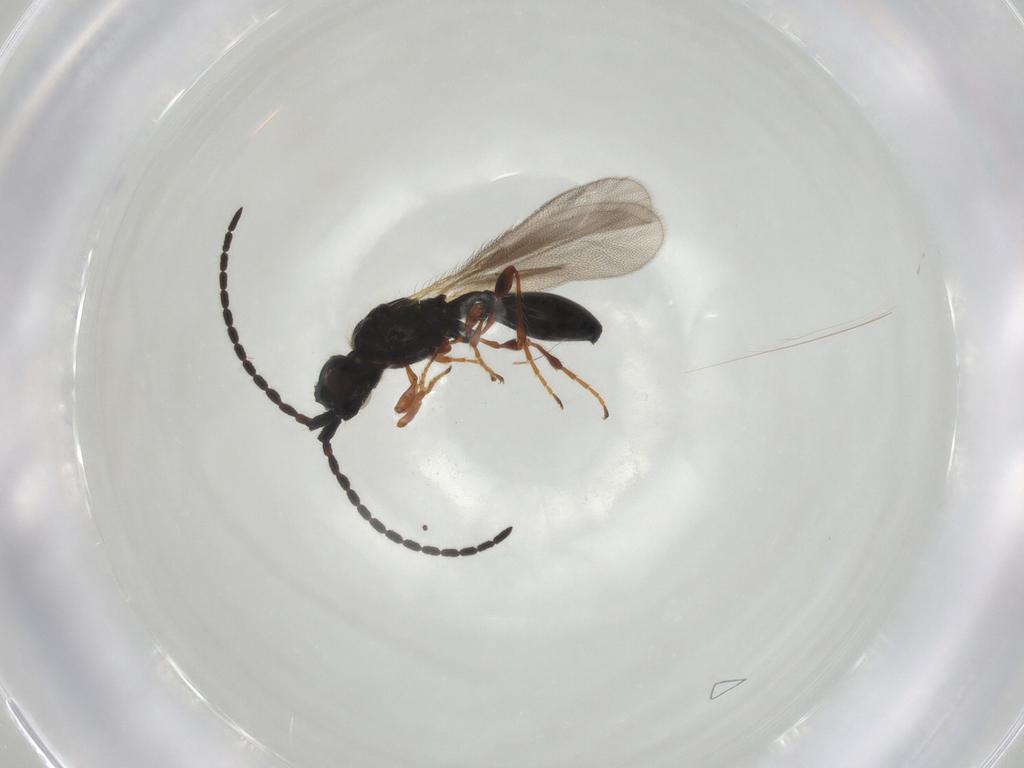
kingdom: Animalia
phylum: Arthropoda
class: Insecta
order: Hymenoptera
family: Diapriidae
